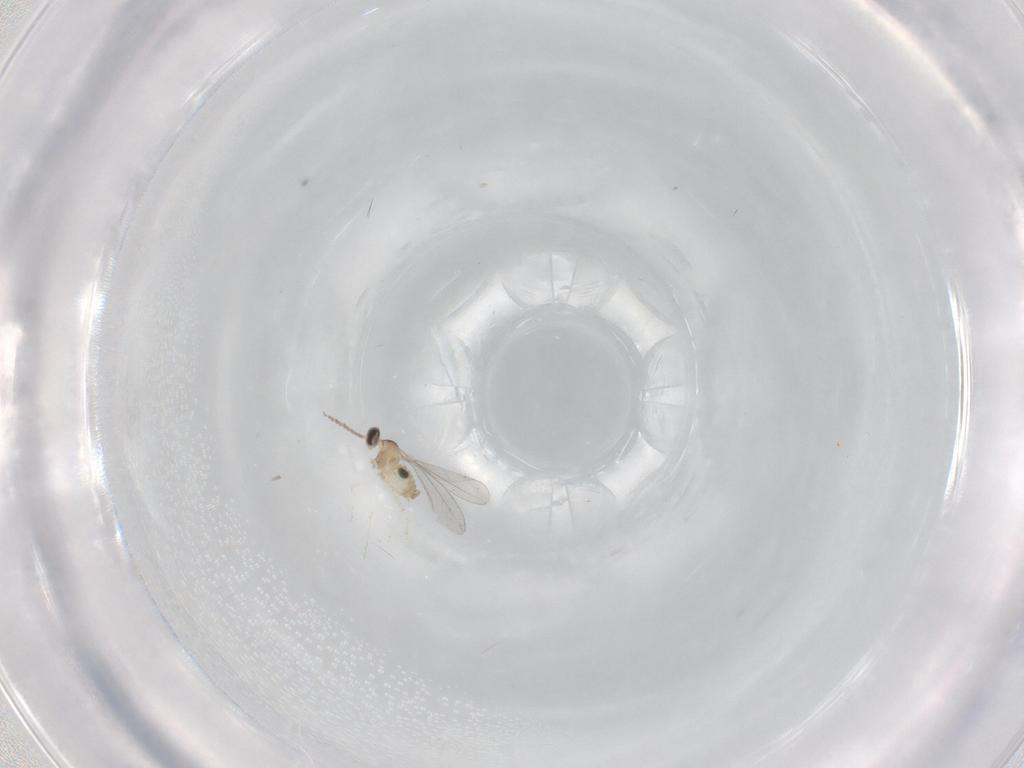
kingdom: Animalia
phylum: Arthropoda
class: Insecta
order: Diptera
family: Cecidomyiidae
